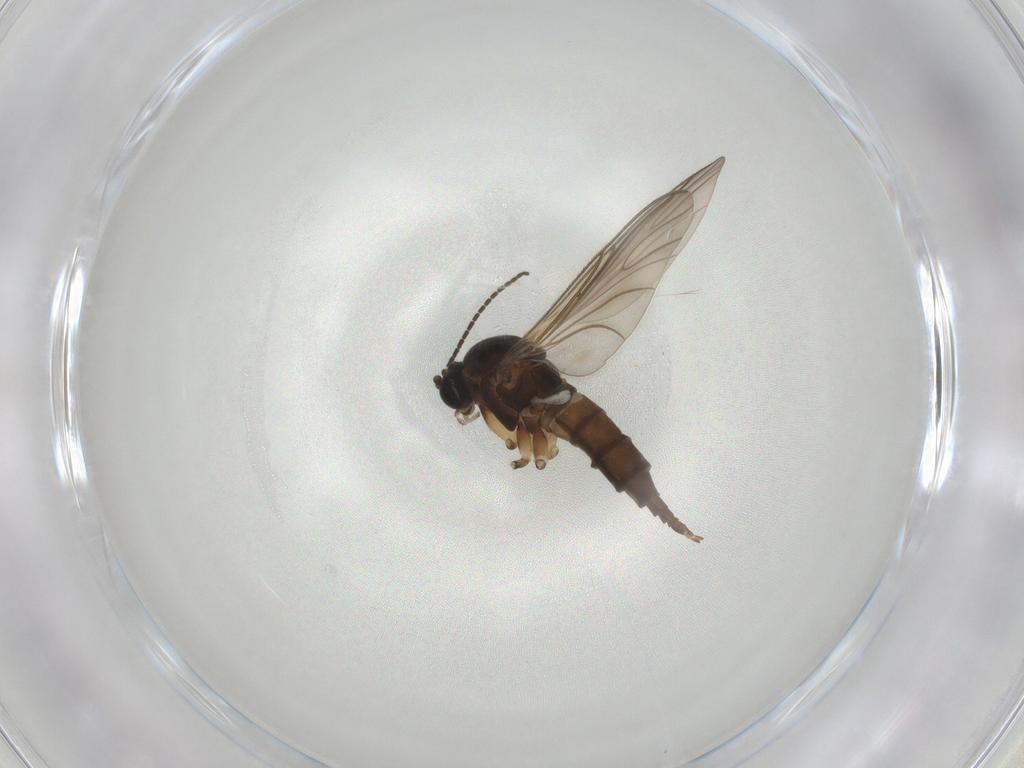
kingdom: Animalia
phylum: Arthropoda
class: Insecta
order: Diptera
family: Sciaridae
